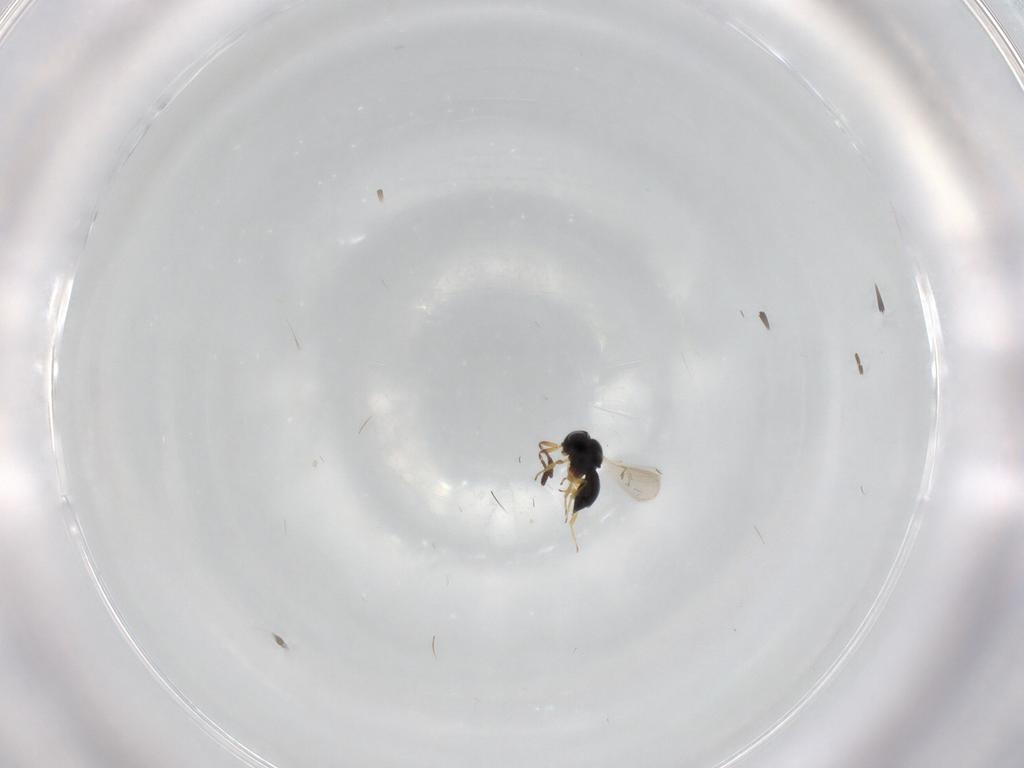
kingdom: Animalia
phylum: Arthropoda
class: Insecta
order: Hymenoptera
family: Formicidae
